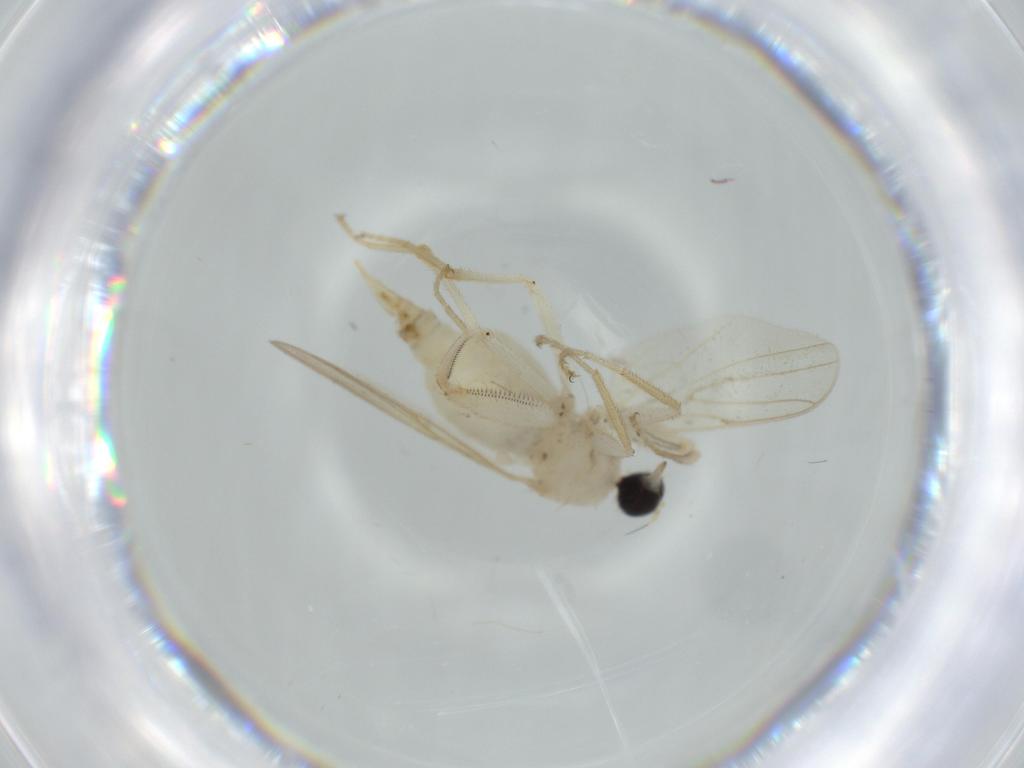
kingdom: Animalia
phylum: Arthropoda
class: Insecta
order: Diptera
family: Hybotidae
